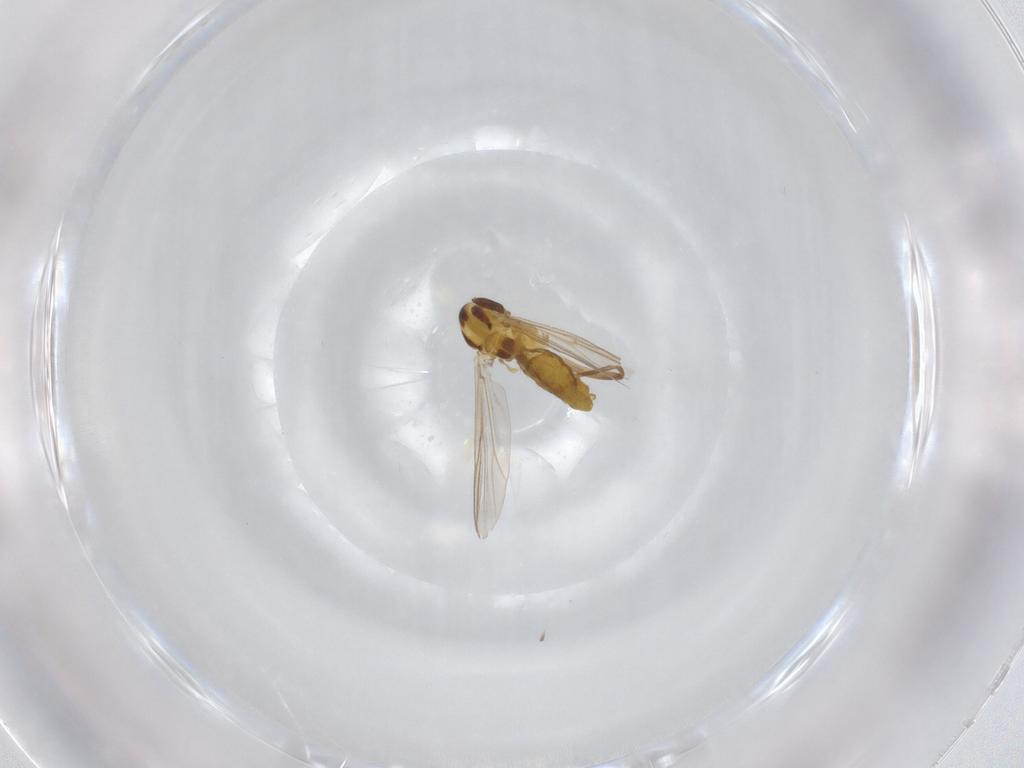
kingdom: Animalia
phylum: Arthropoda
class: Insecta
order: Diptera
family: Chironomidae
